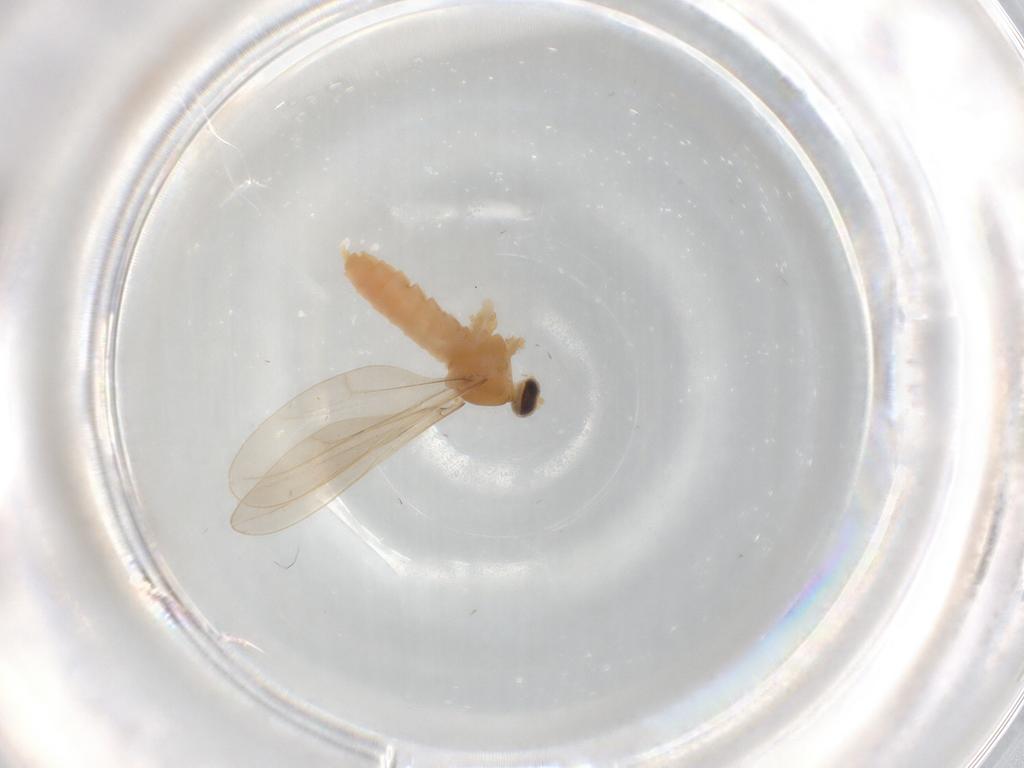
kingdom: Animalia
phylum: Arthropoda
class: Insecta
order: Diptera
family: Cecidomyiidae
